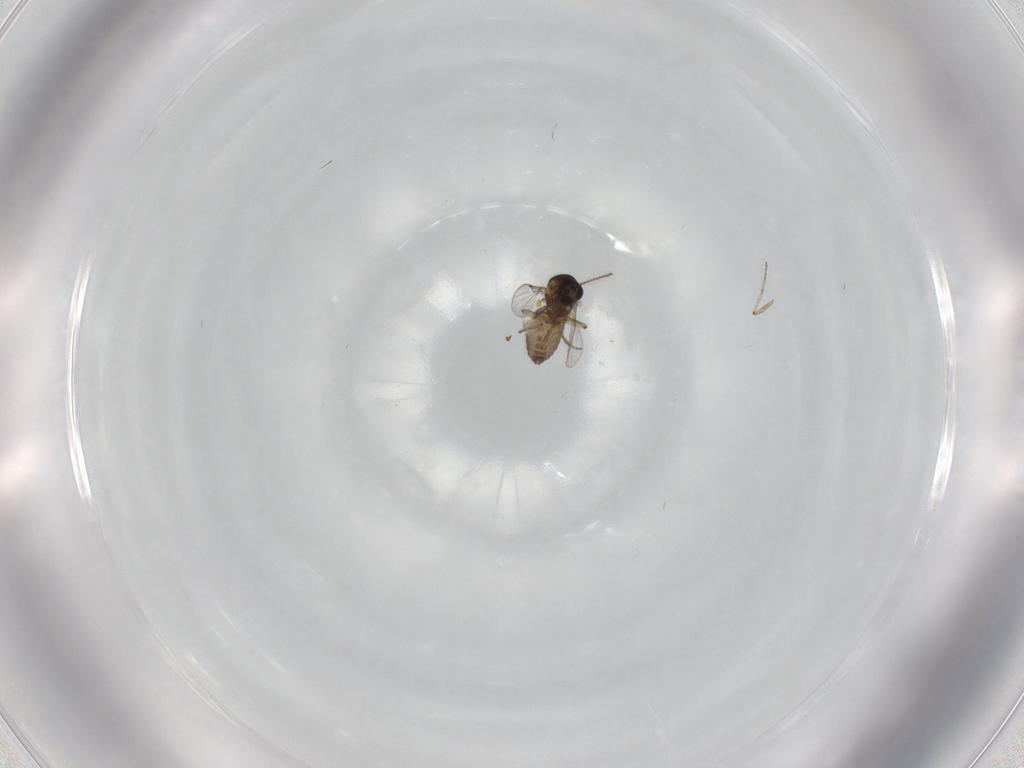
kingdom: Animalia
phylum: Arthropoda
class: Insecta
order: Diptera
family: Ceratopogonidae
